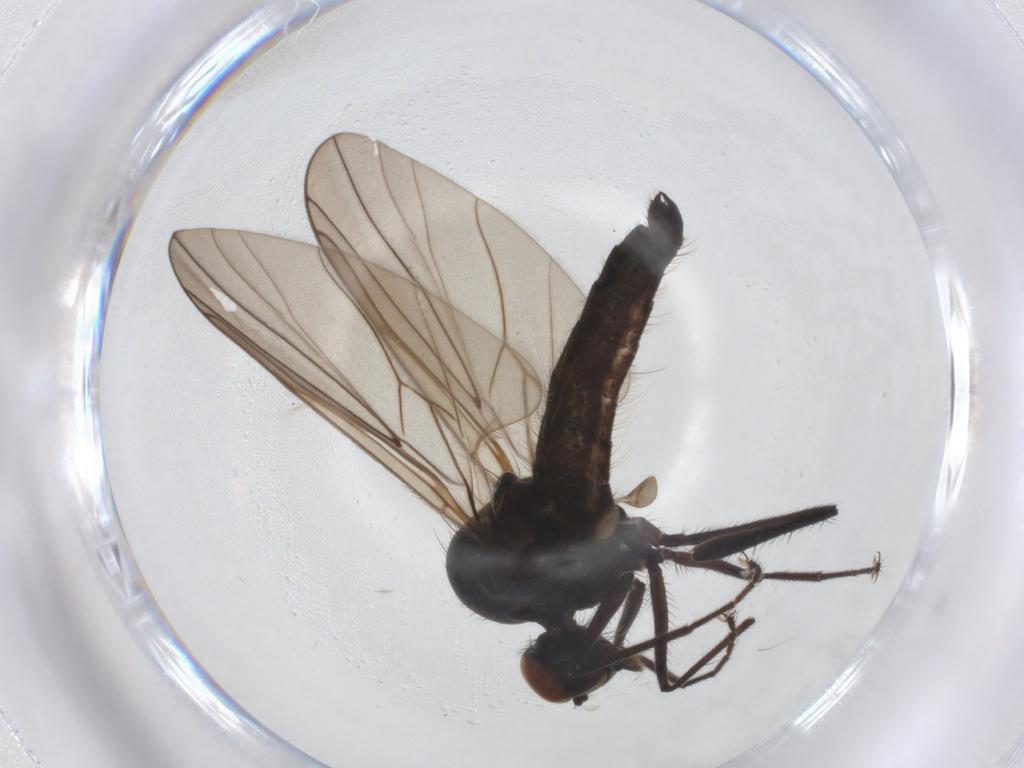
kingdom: Animalia
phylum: Arthropoda
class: Insecta
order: Diptera
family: Hybotidae
